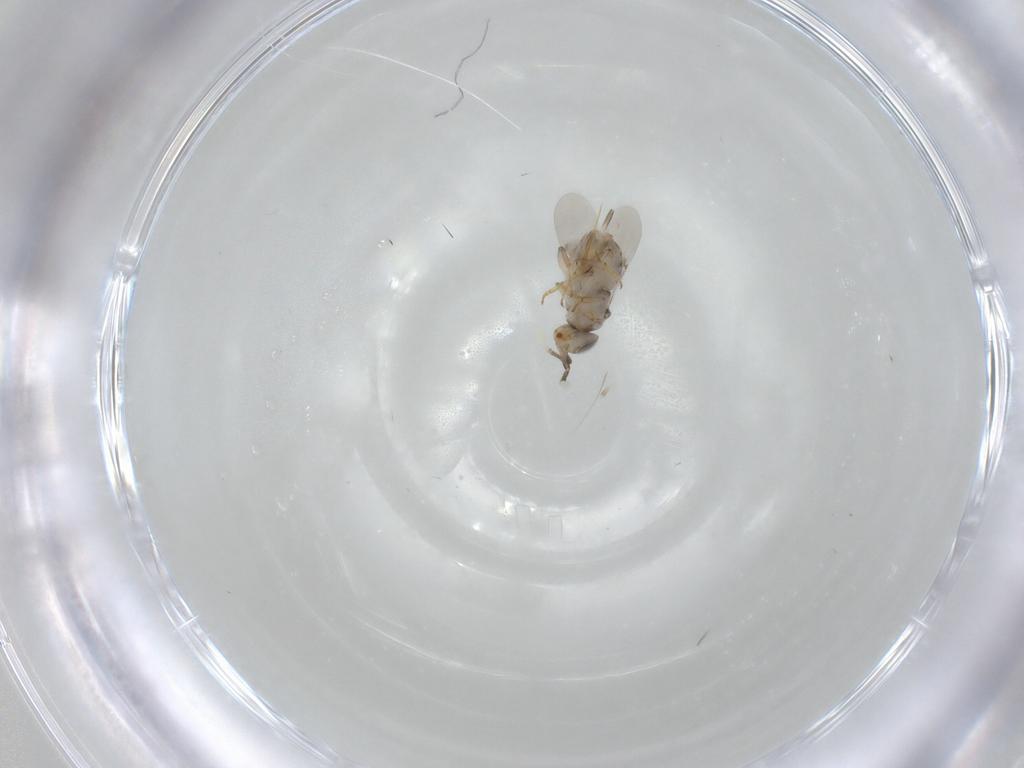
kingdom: Animalia
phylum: Arthropoda
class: Insecta
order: Hymenoptera
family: Encyrtidae
